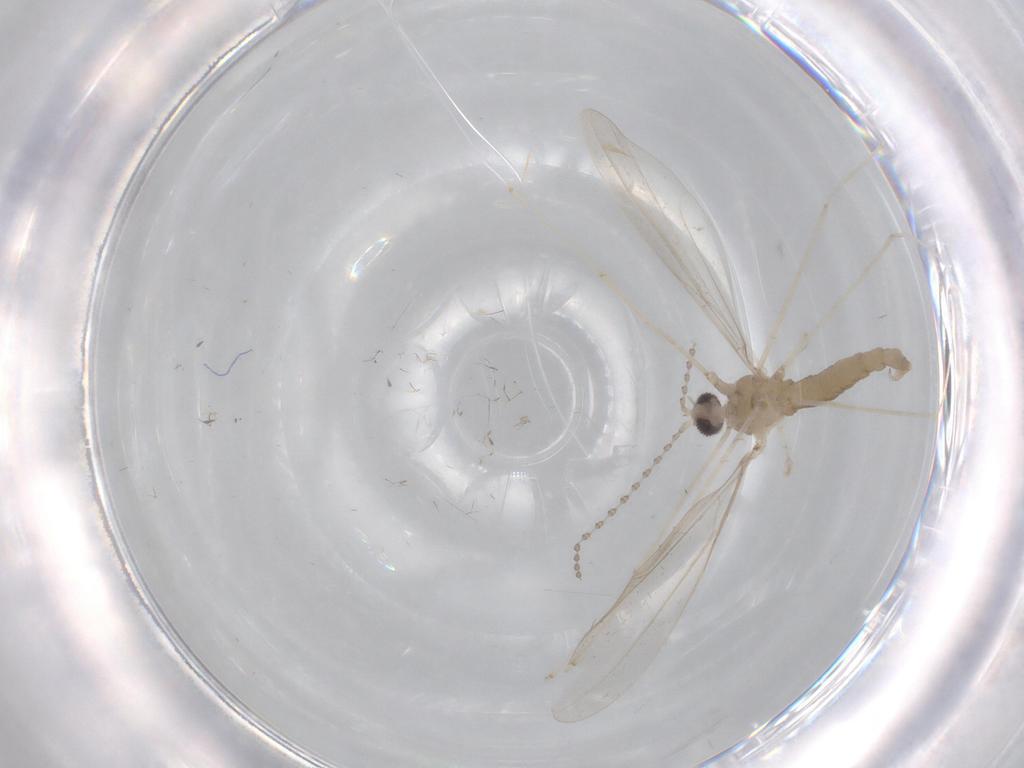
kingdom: Animalia
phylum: Arthropoda
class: Insecta
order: Diptera
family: Cecidomyiidae
